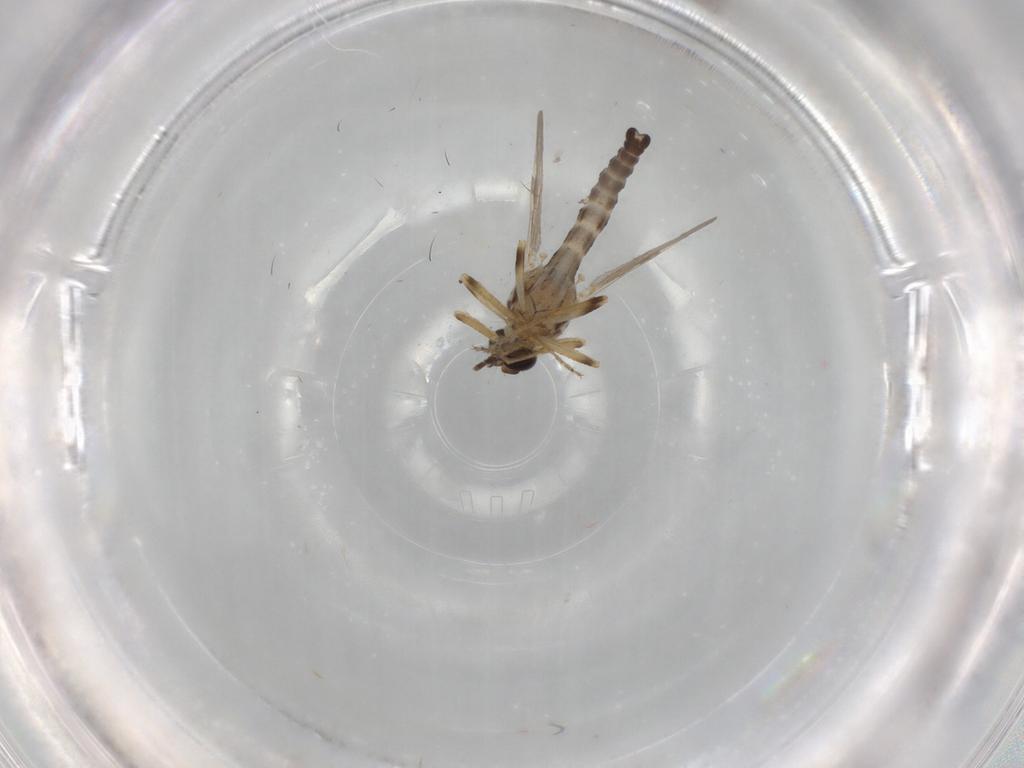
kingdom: Animalia
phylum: Arthropoda
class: Insecta
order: Diptera
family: Ceratopogonidae
